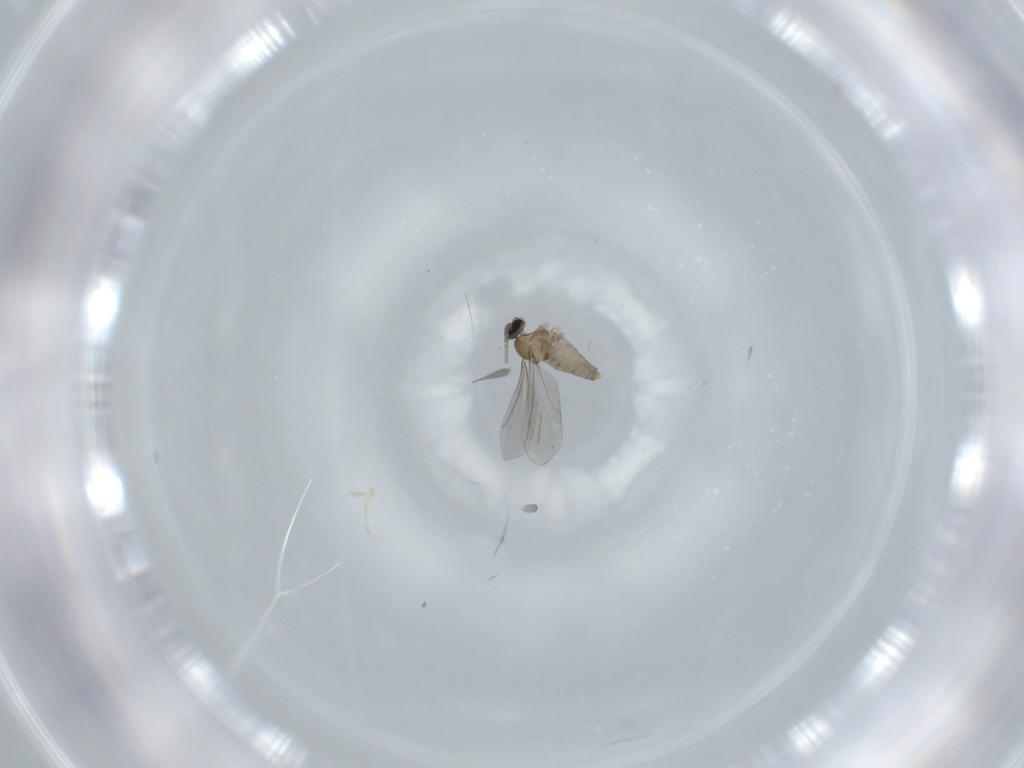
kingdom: Animalia
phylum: Arthropoda
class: Insecta
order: Diptera
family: Cecidomyiidae
